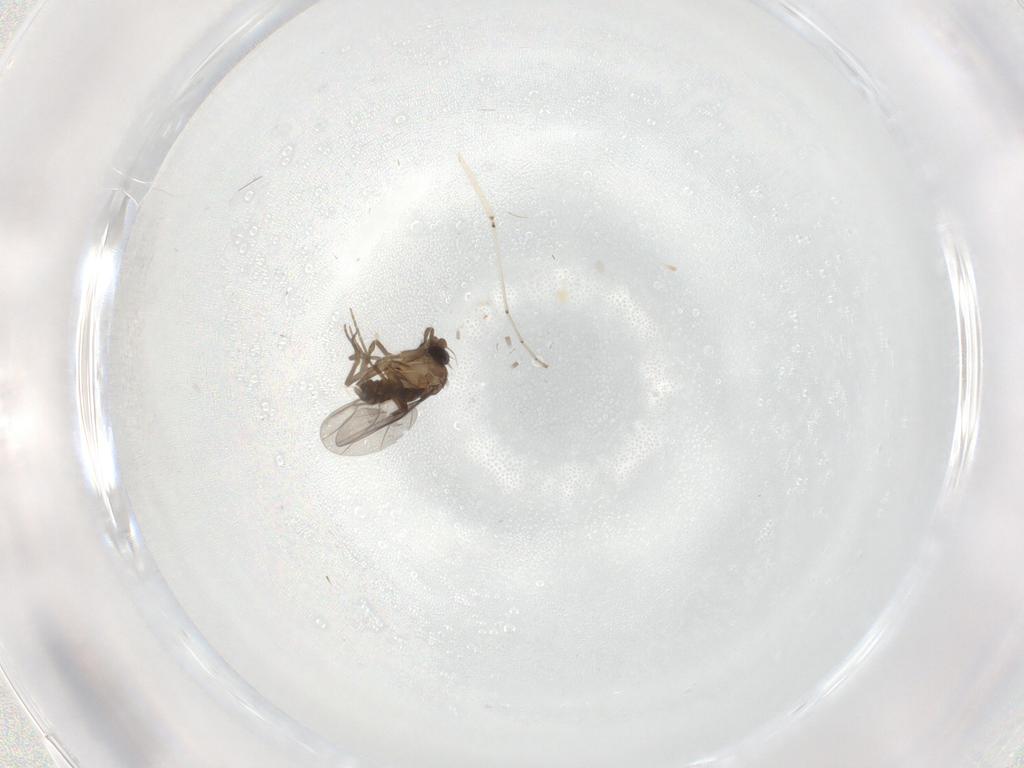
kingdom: Animalia
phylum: Arthropoda
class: Insecta
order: Diptera
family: Cecidomyiidae
